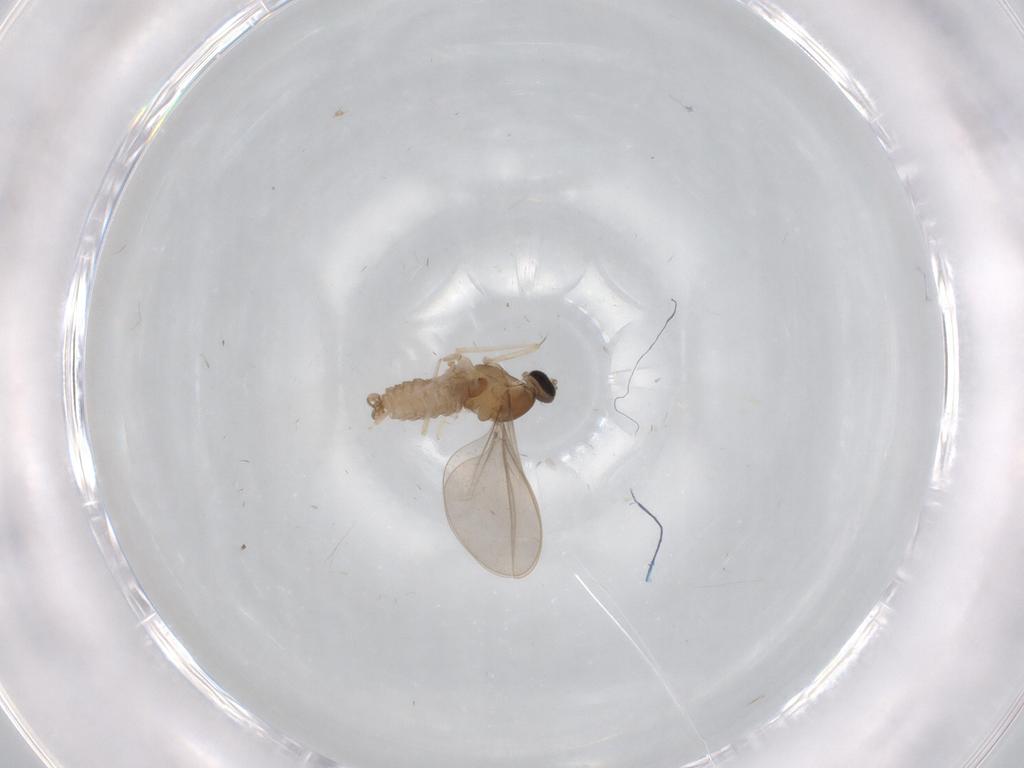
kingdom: Animalia
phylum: Arthropoda
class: Insecta
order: Diptera
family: Cecidomyiidae
